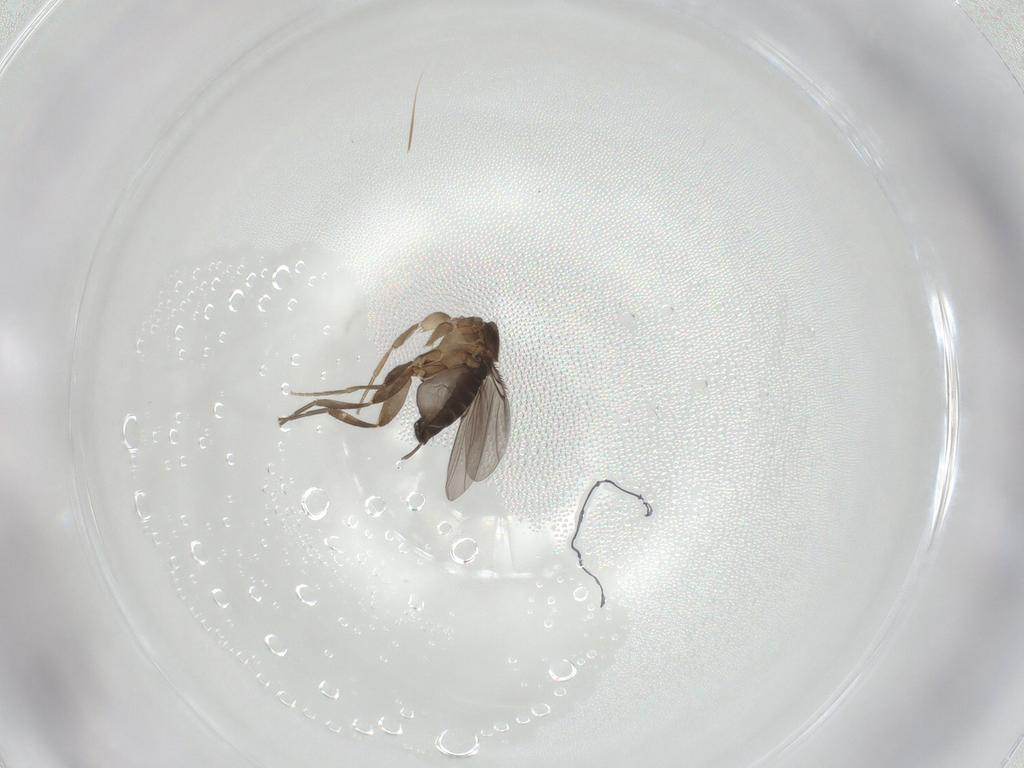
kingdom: Animalia
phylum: Arthropoda
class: Insecta
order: Diptera
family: Phoridae
